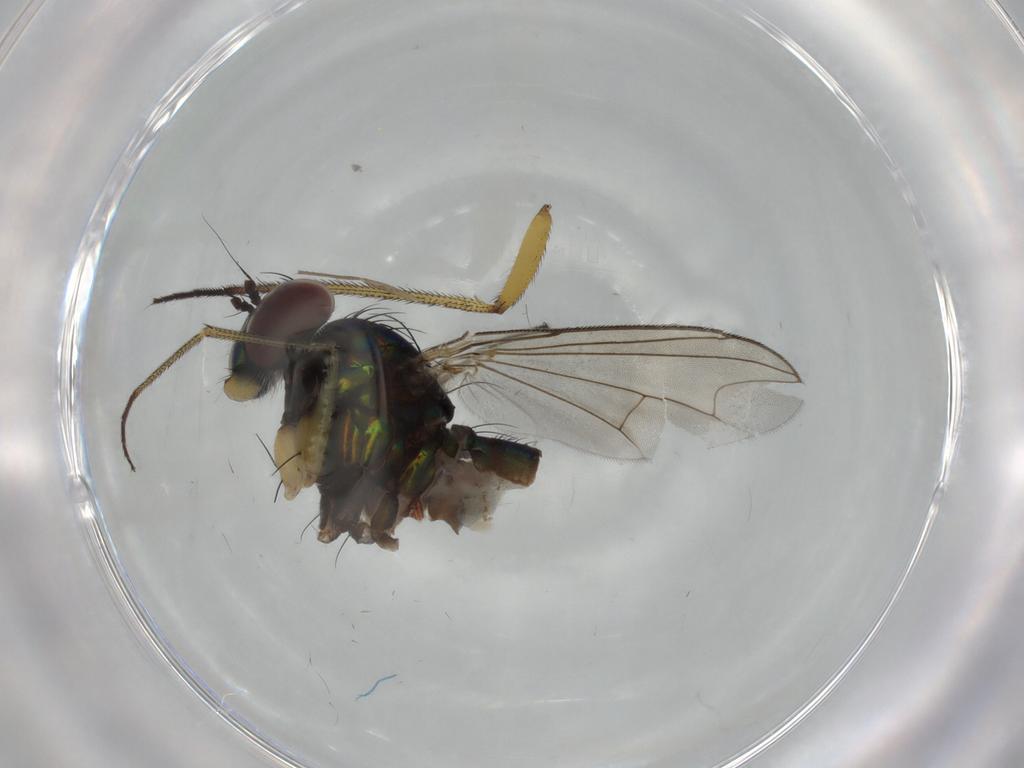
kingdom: Animalia
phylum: Arthropoda
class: Insecta
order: Diptera
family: Dolichopodidae
